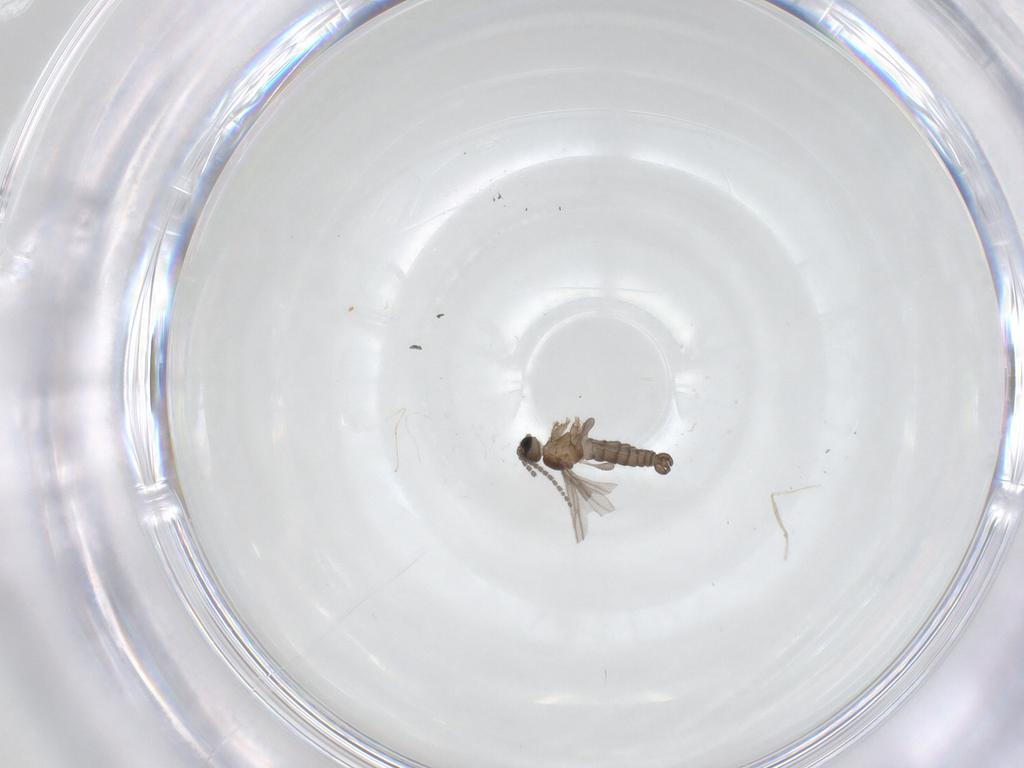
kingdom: Animalia
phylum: Arthropoda
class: Insecta
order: Diptera
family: Sciaridae
